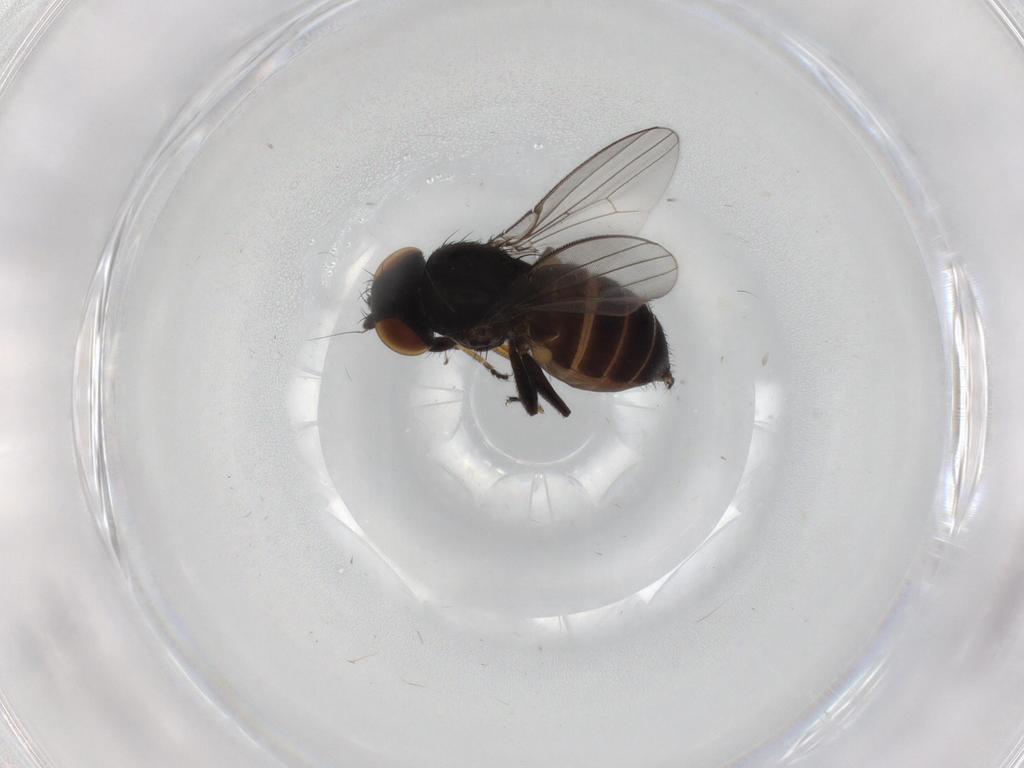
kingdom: Animalia
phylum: Arthropoda
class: Insecta
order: Diptera
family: Milichiidae
